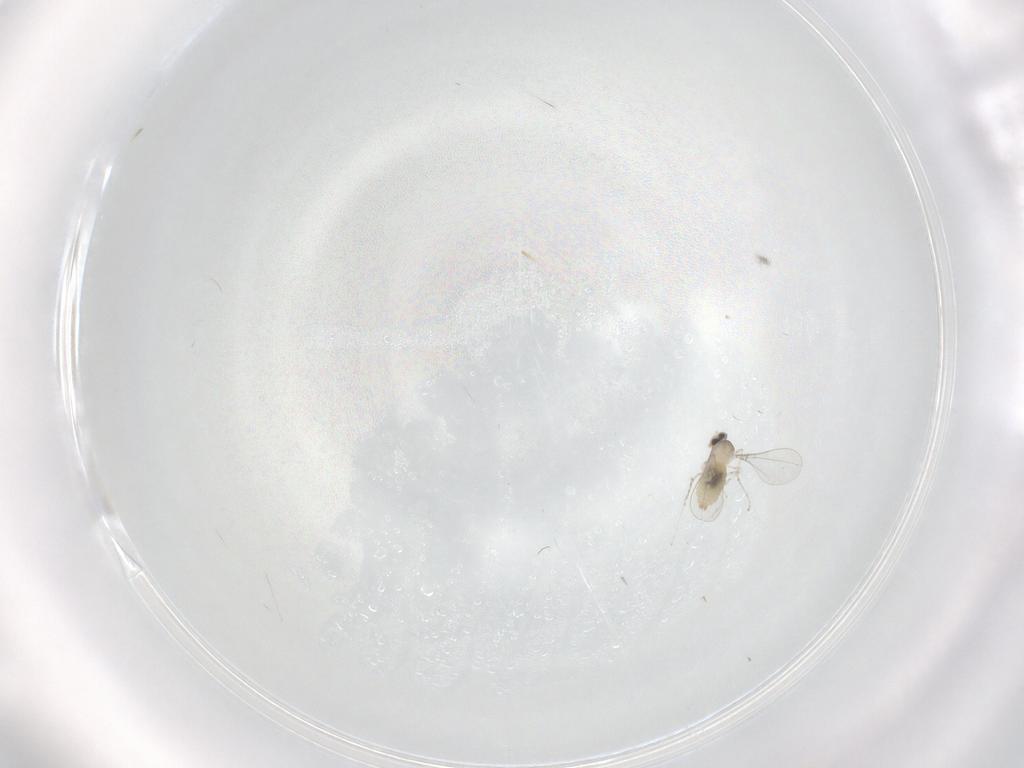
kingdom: Animalia
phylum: Arthropoda
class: Insecta
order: Diptera
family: Cecidomyiidae
